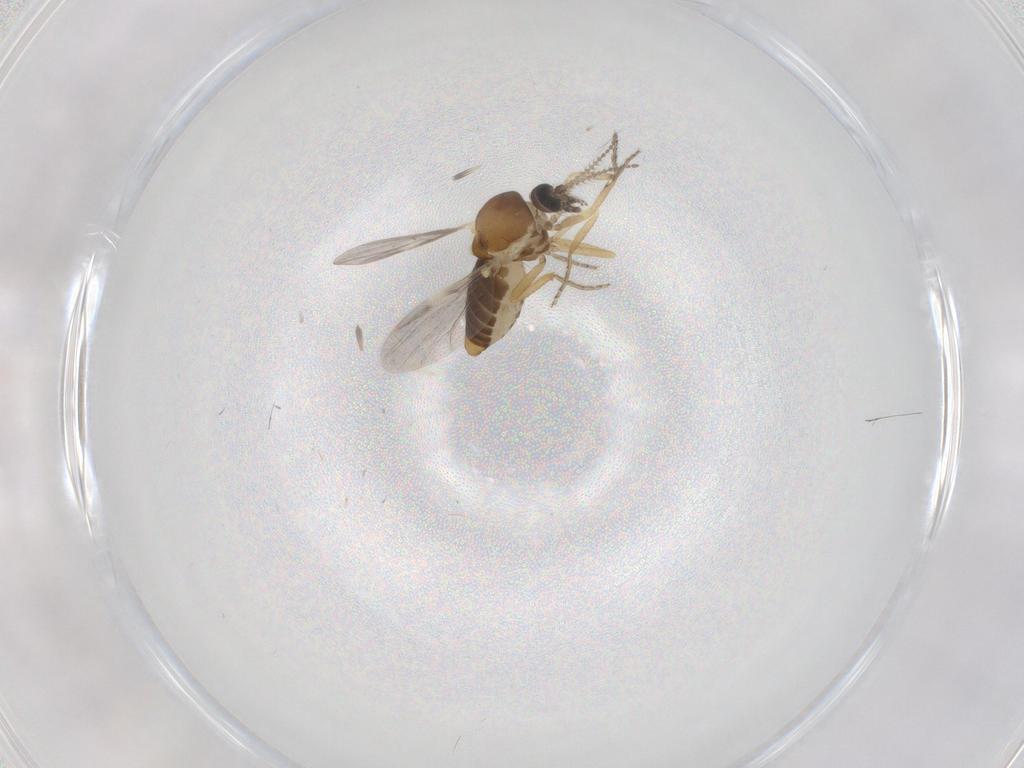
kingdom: Animalia
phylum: Arthropoda
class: Insecta
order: Diptera
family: Ceratopogonidae
